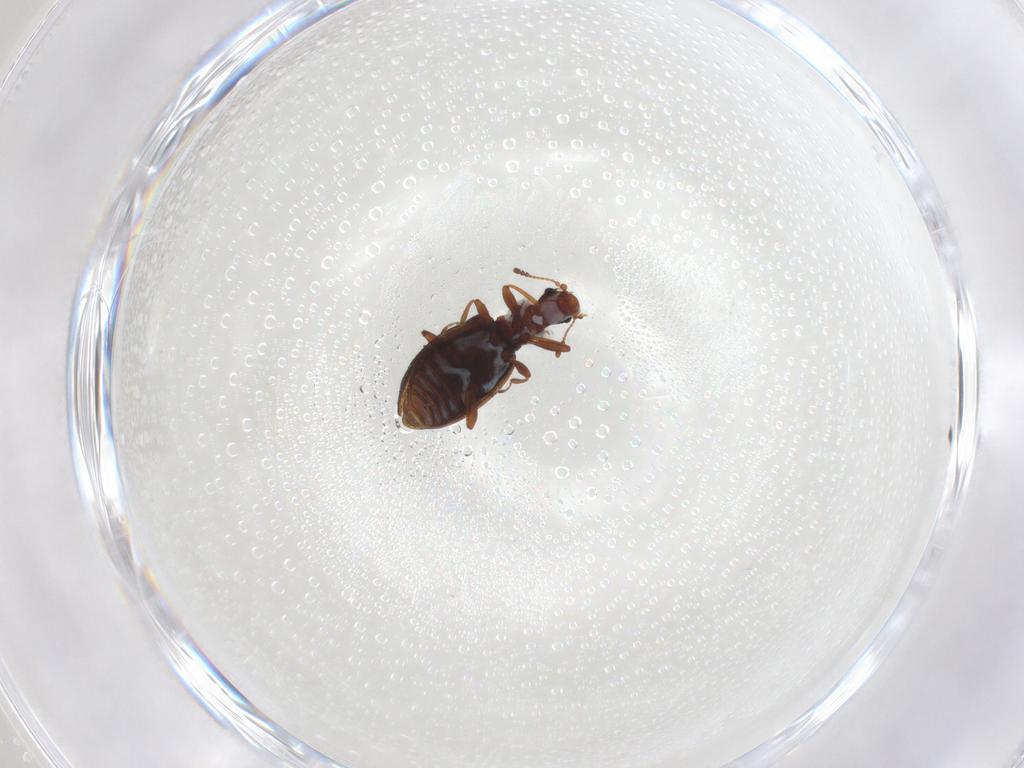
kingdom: Animalia
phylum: Arthropoda
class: Insecta
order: Coleoptera
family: Latridiidae
